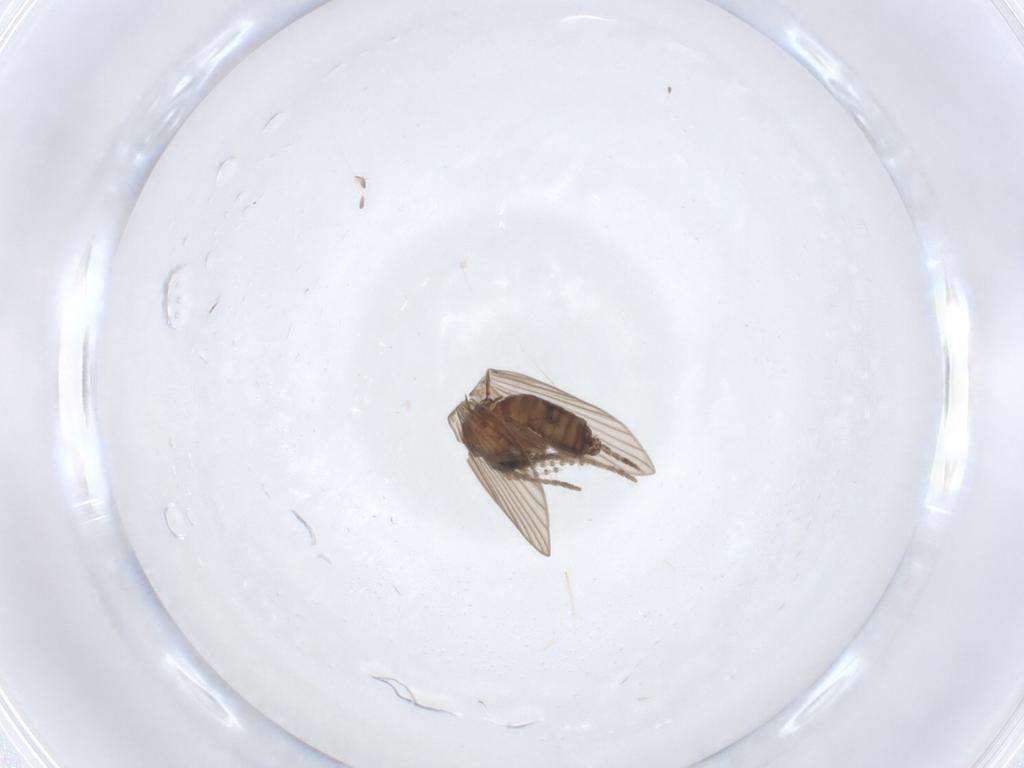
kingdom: Animalia
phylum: Arthropoda
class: Insecta
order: Diptera
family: Psychodidae
